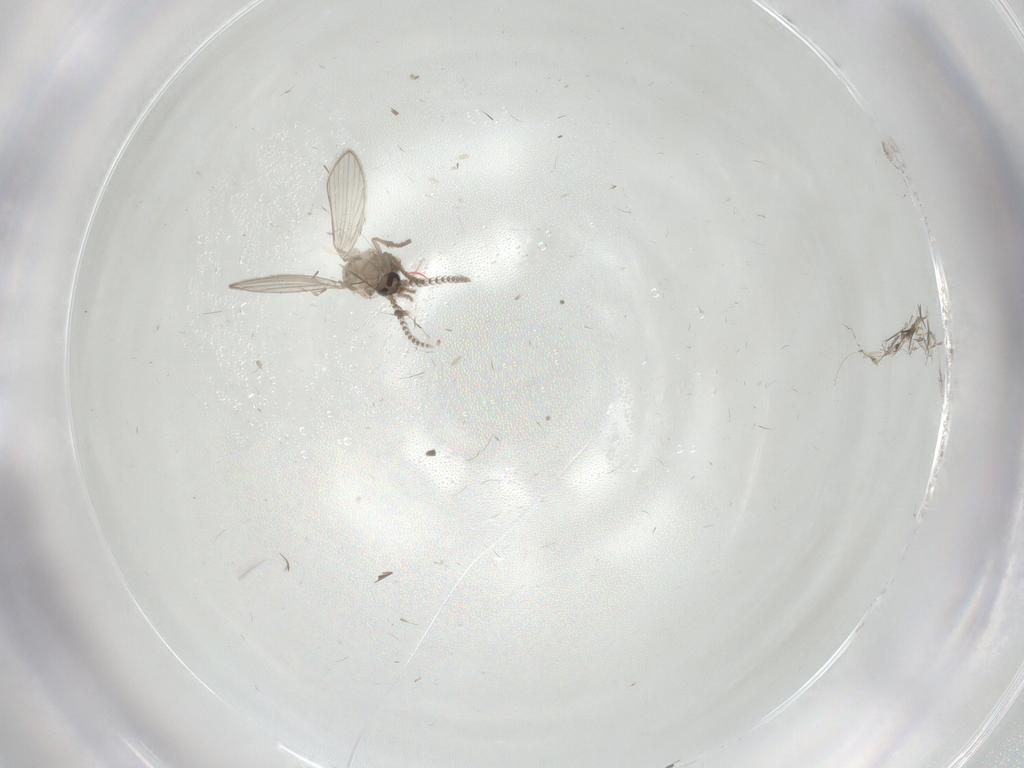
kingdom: Animalia
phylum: Arthropoda
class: Insecta
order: Diptera
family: Psychodidae
